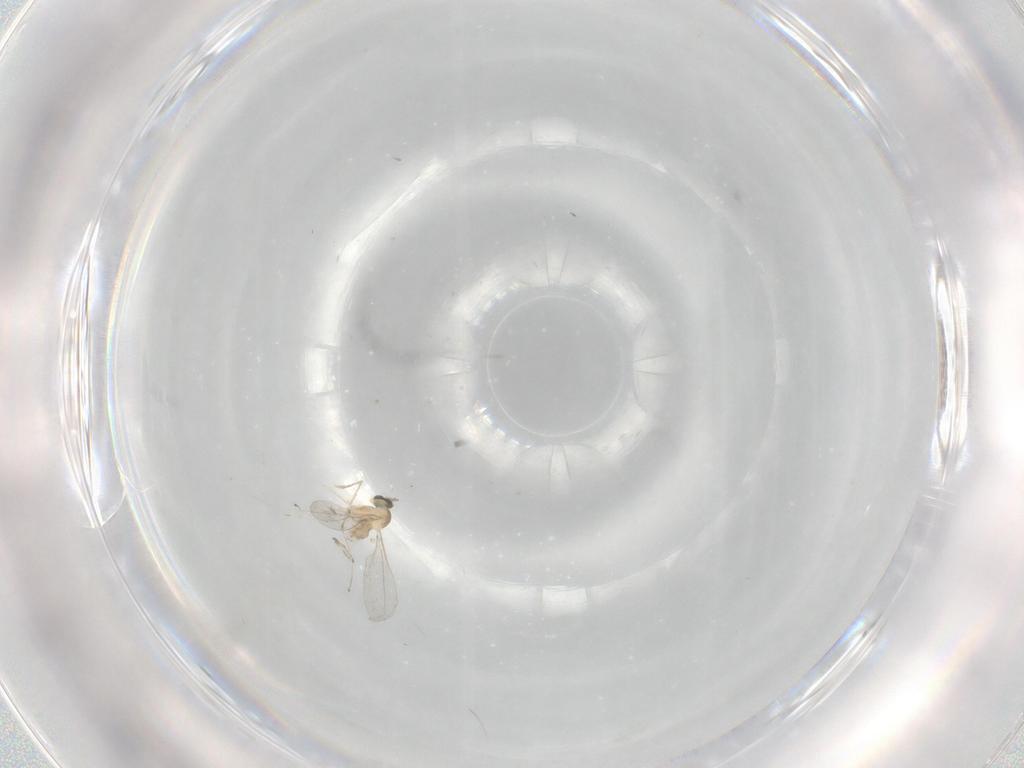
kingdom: Animalia
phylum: Arthropoda
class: Insecta
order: Diptera
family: Cecidomyiidae
